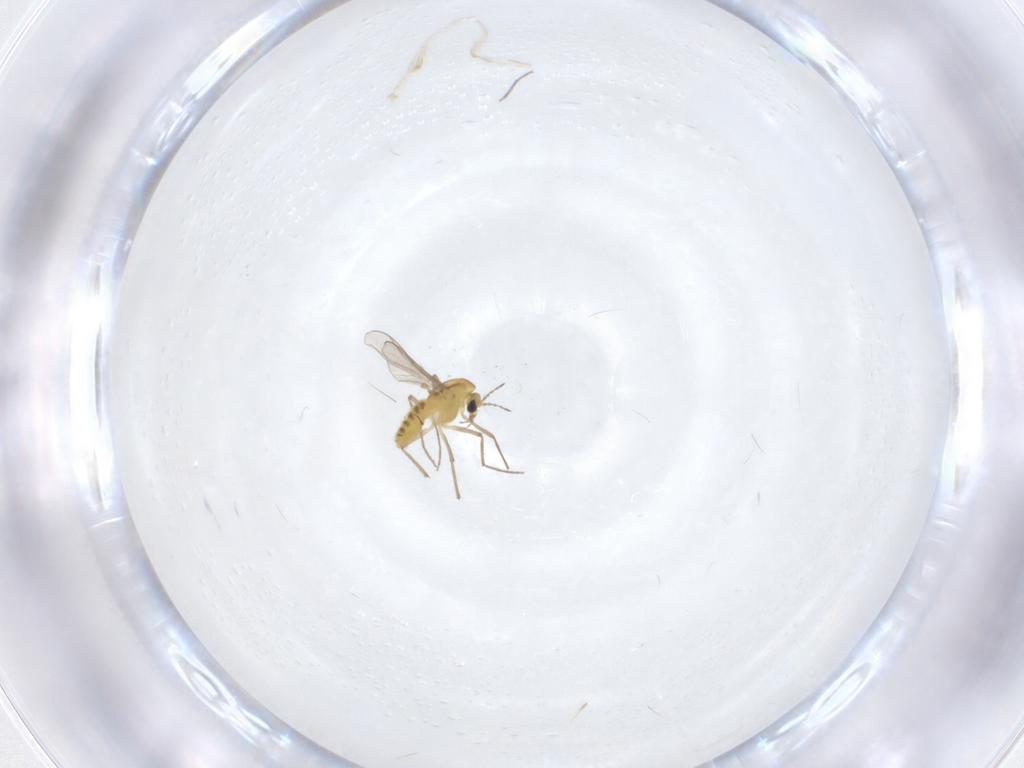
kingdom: Animalia
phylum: Arthropoda
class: Insecta
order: Diptera
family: Chironomidae
